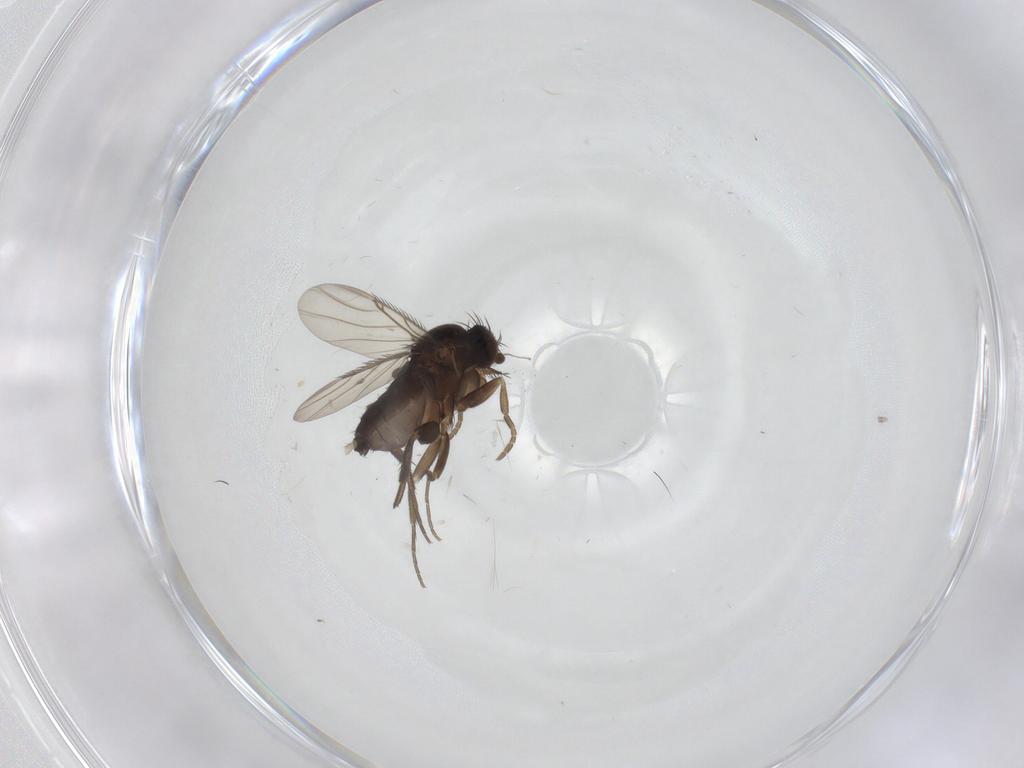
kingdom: Animalia
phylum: Arthropoda
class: Insecta
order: Diptera
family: Phoridae
